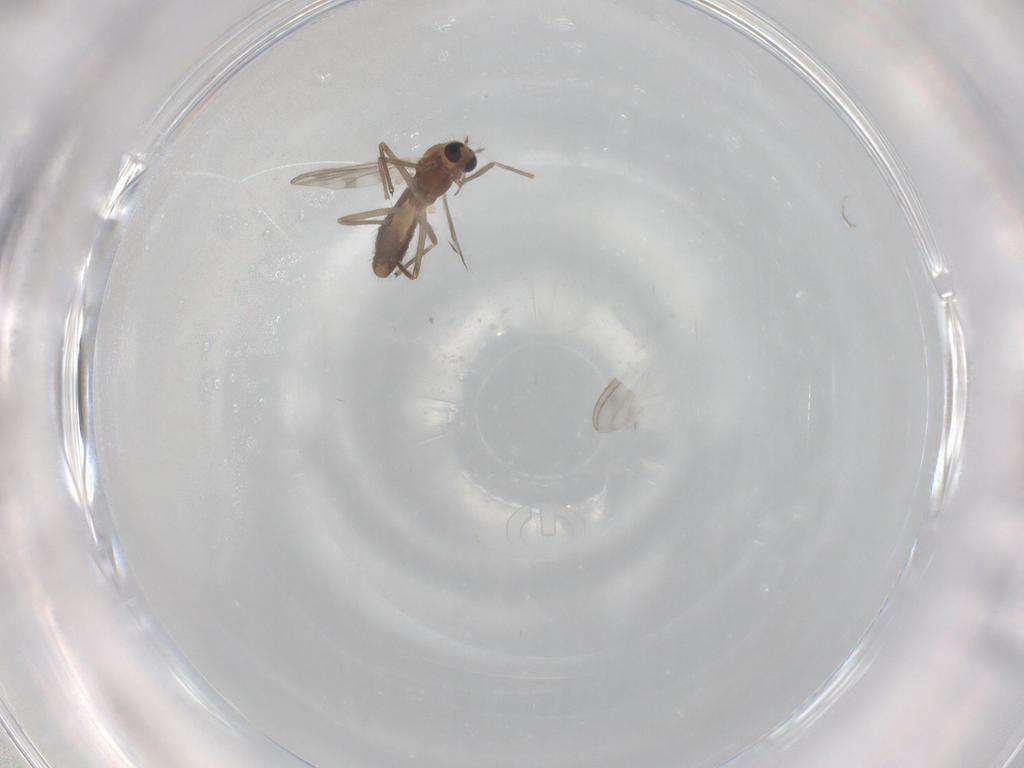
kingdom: Animalia
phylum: Arthropoda
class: Insecta
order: Diptera
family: Chironomidae
